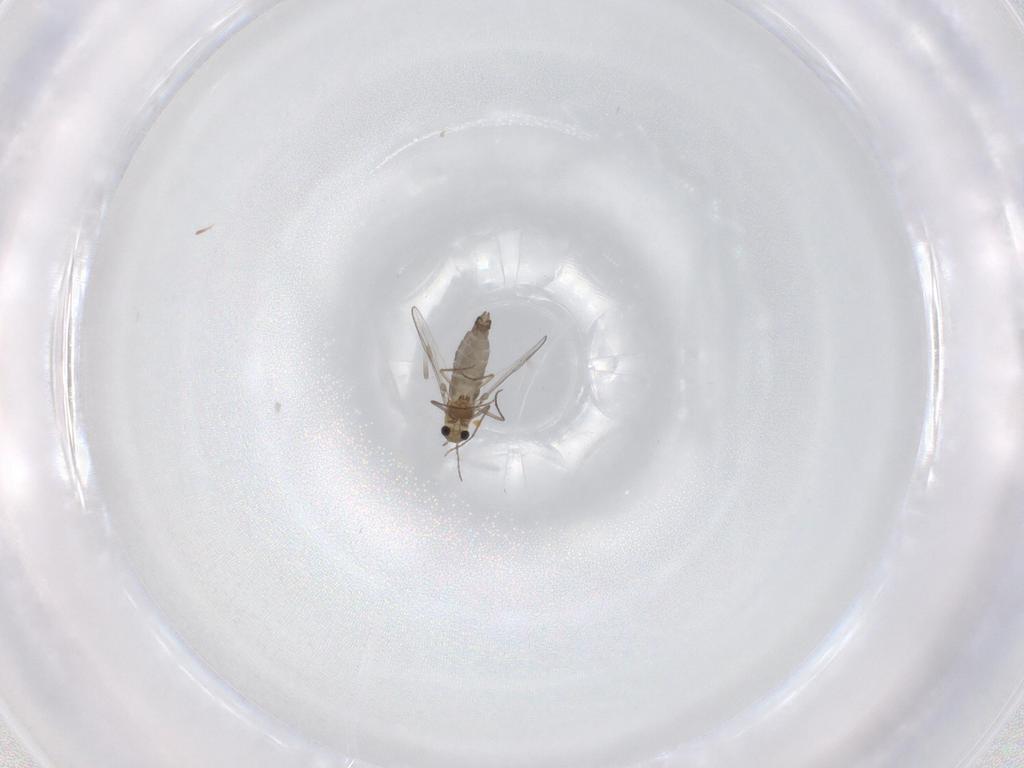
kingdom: Animalia
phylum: Arthropoda
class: Insecta
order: Diptera
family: Chironomidae
